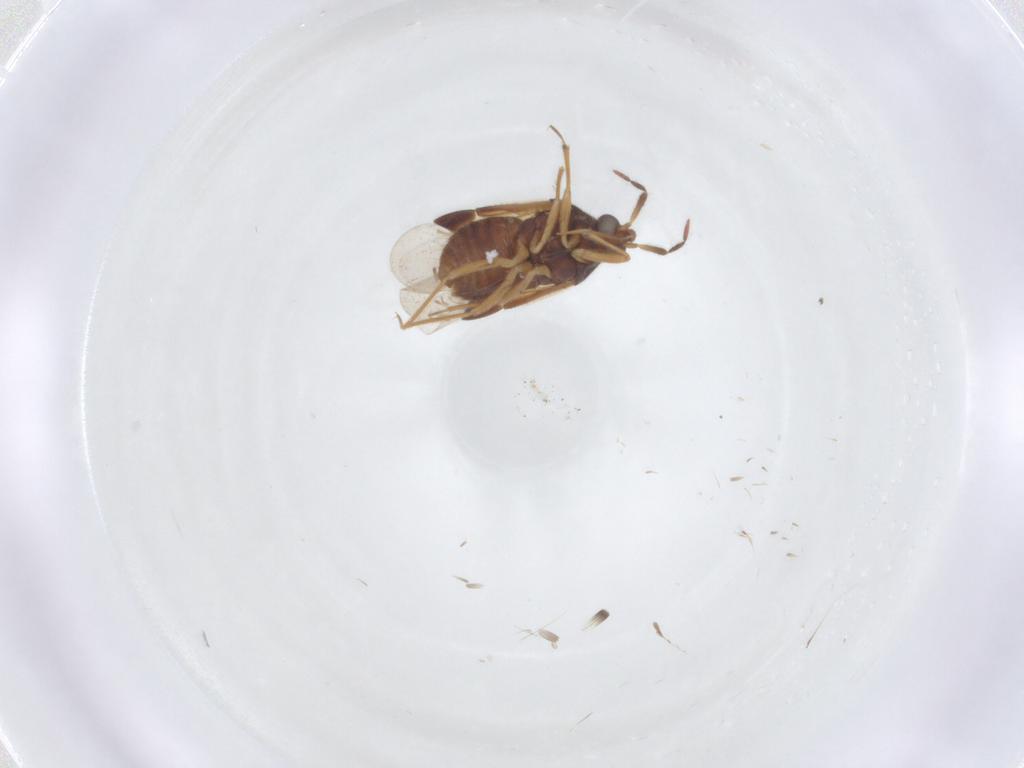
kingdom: Animalia
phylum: Arthropoda
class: Insecta
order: Hemiptera
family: Anthocoridae
